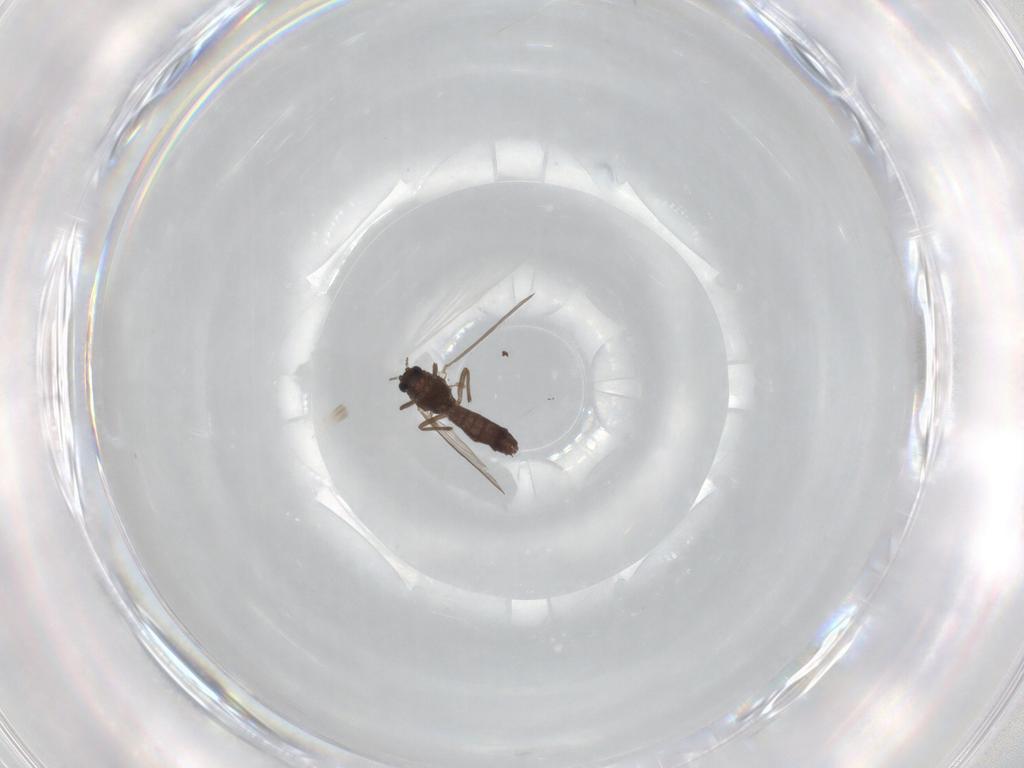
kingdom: Animalia
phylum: Arthropoda
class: Insecta
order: Diptera
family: Chironomidae
